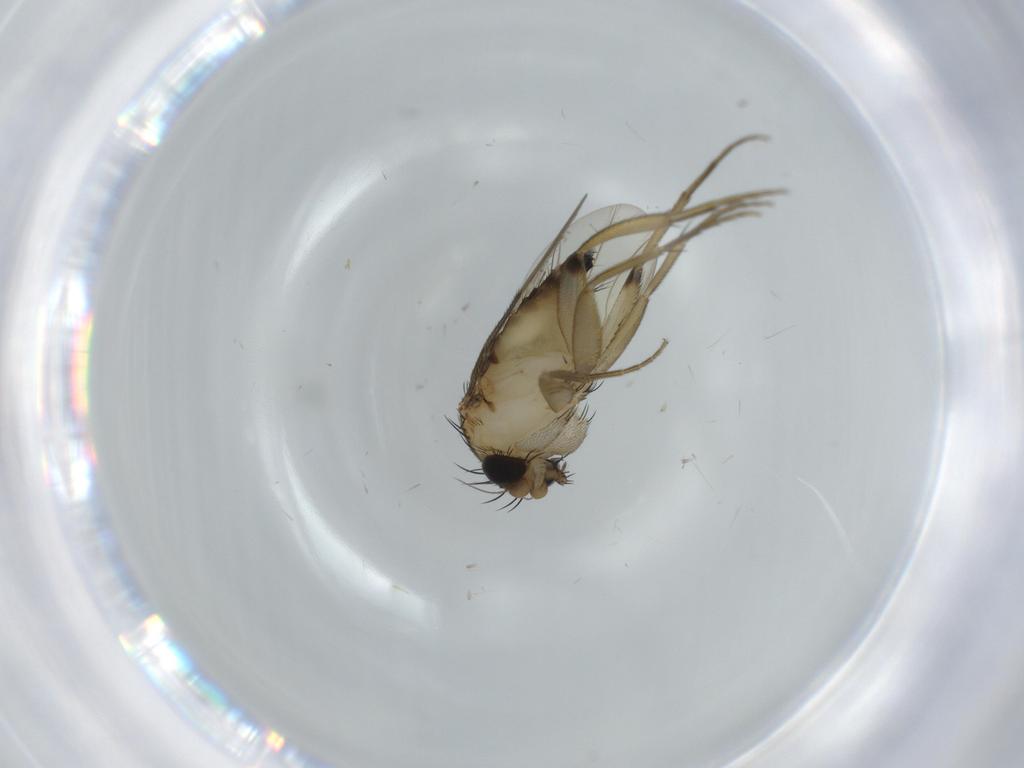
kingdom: Animalia
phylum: Arthropoda
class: Insecta
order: Diptera
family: Phoridae
